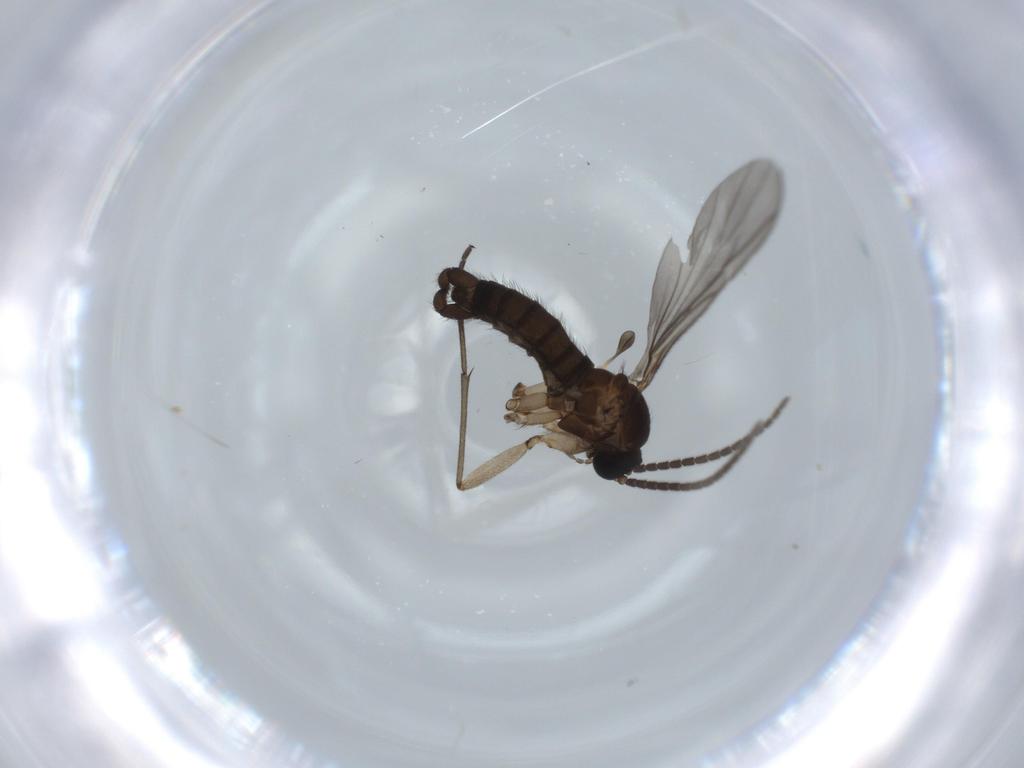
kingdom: Animalia
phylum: Arthropoda
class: Insecta
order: Diptera
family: Sciaridae
